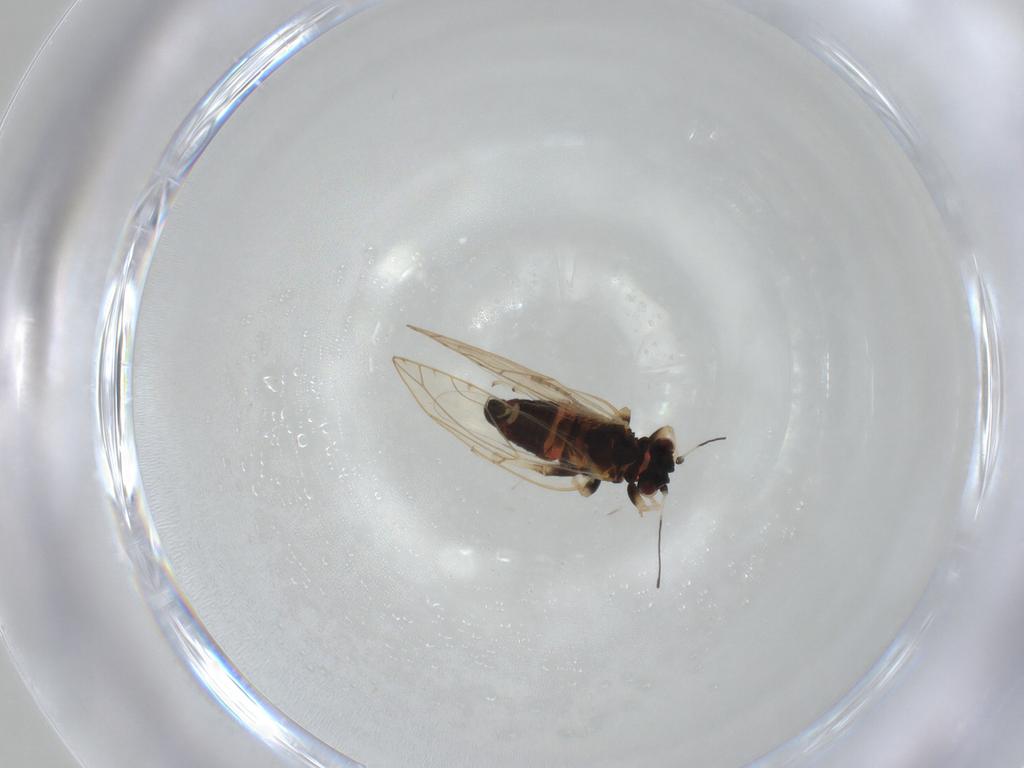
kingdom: Animalia
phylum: Arthropoda
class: Insecta
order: Hemiptera
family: Psylloidea_incertae_sedis
